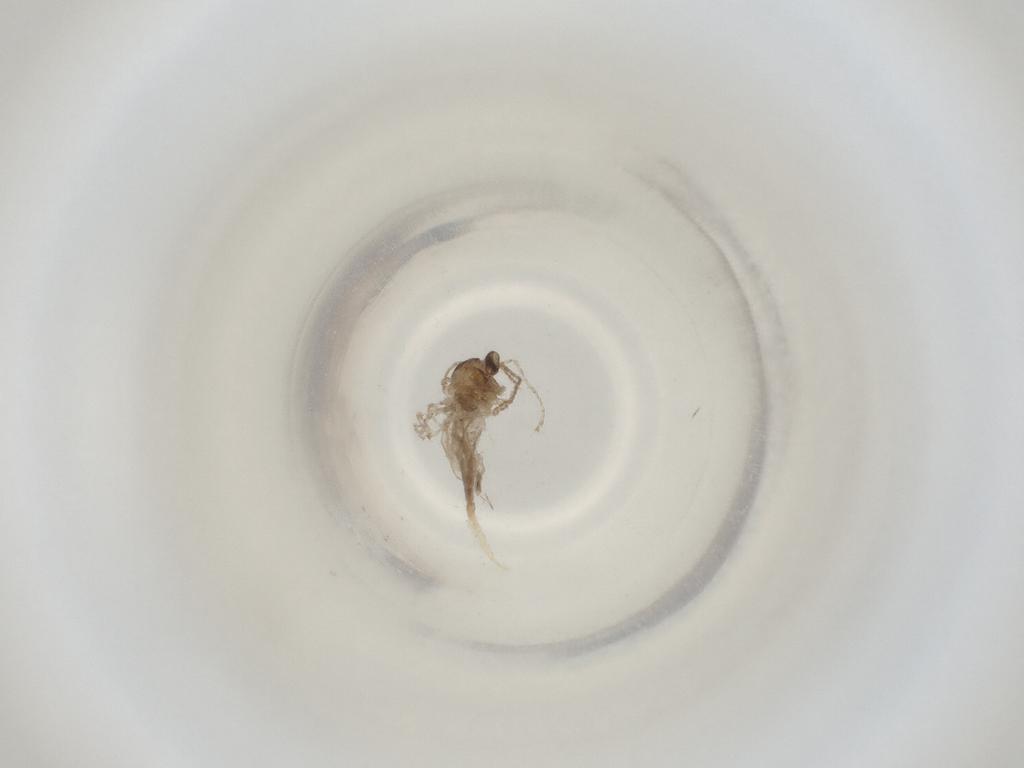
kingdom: Animalia
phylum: Arthropoda
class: Insecta
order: Diptera
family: Cecidomyiidae
